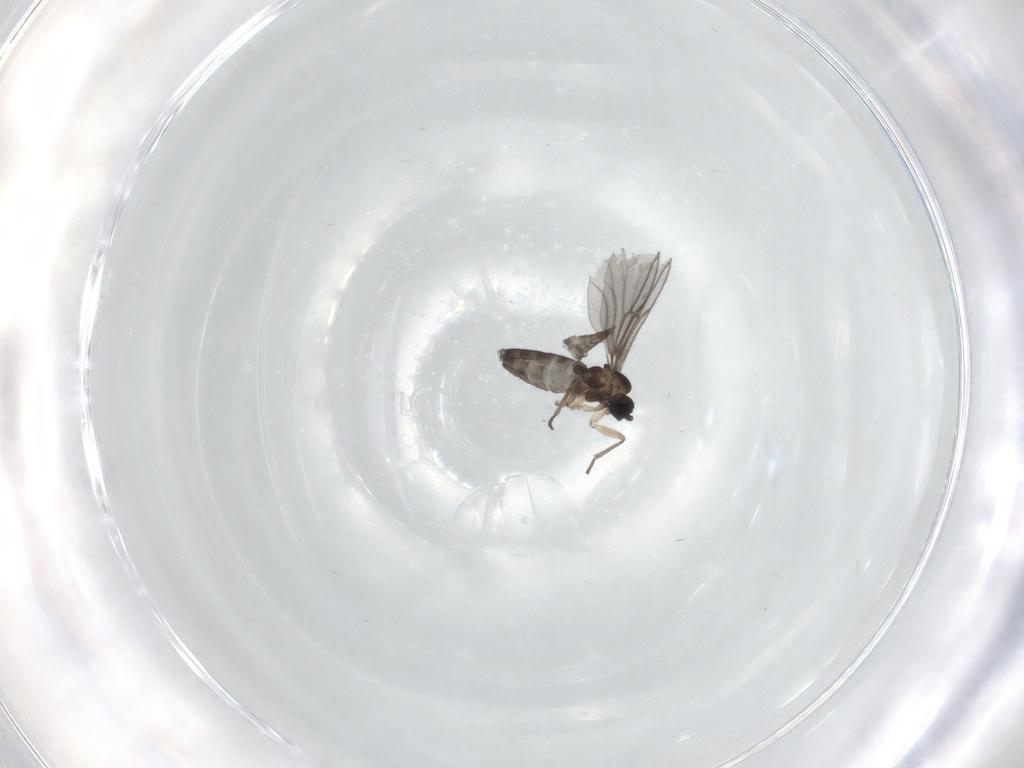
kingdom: Animalia
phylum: Arthropoda
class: Insecta
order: Diptera
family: Sciaridae
